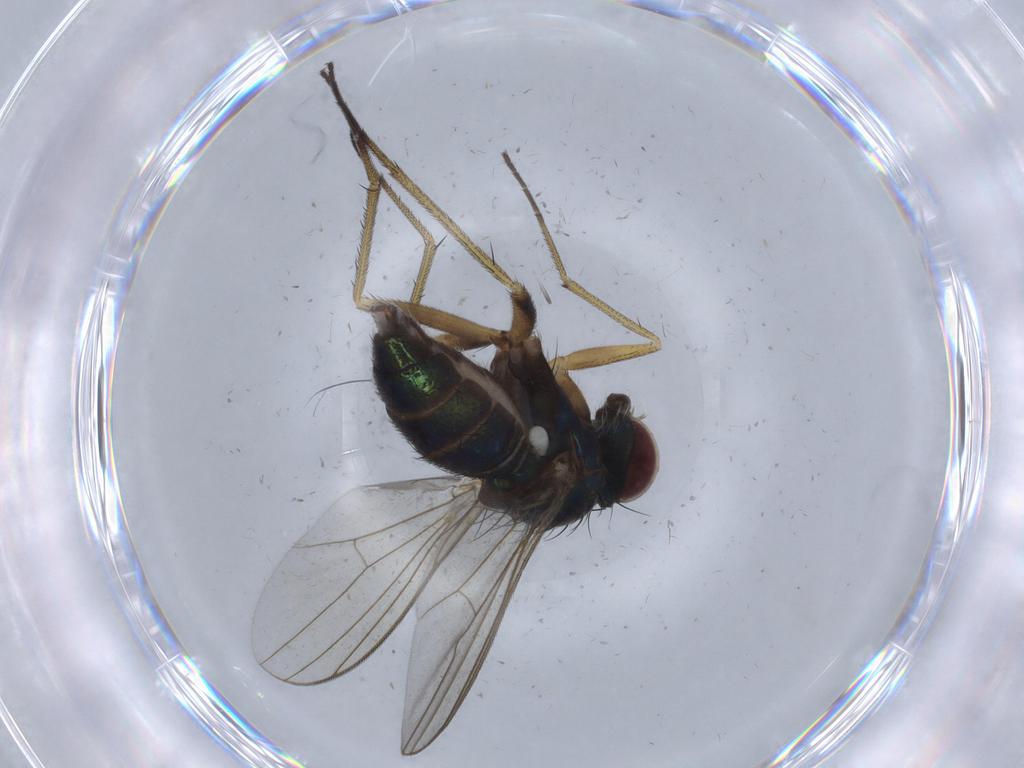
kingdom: Animalia
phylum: Arthropoda
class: Insecta
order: Diptera
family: Dolichopodidae
